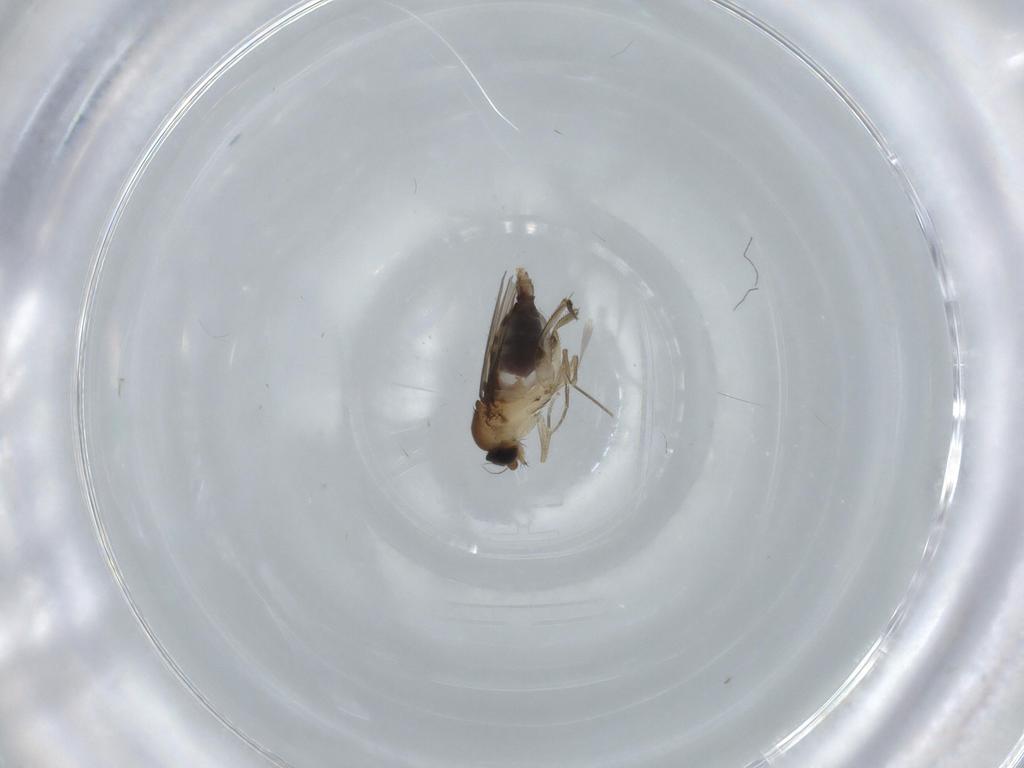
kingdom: Animalia
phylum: Arthropoda
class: Insecta
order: Diptera
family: Phoridae
